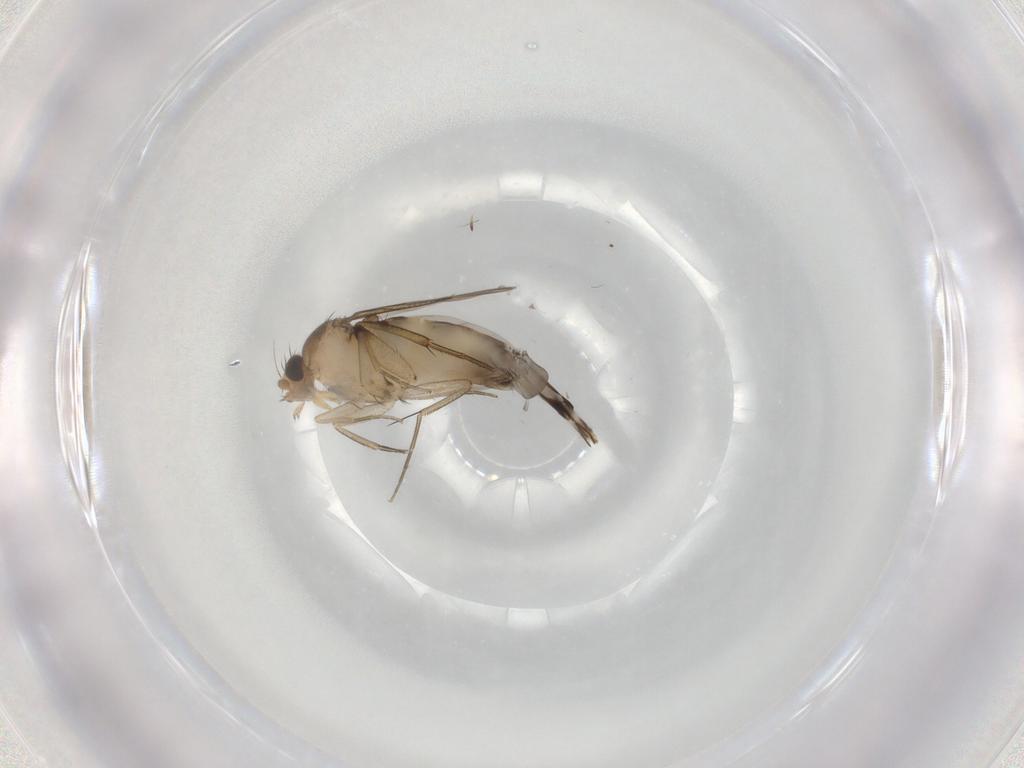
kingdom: Animalia
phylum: Arthropoda
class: Insecta
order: Diptera
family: Phoridae
